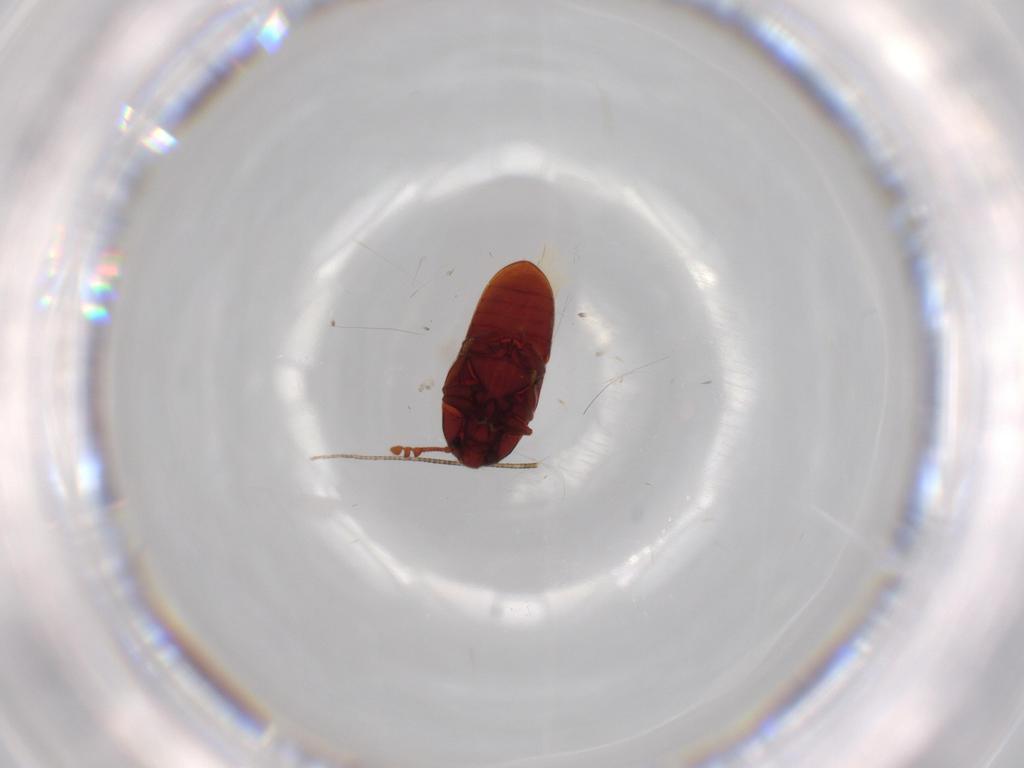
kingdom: Animalia
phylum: Arthropoda
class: Insecta
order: Coleoptera
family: Throscidae
